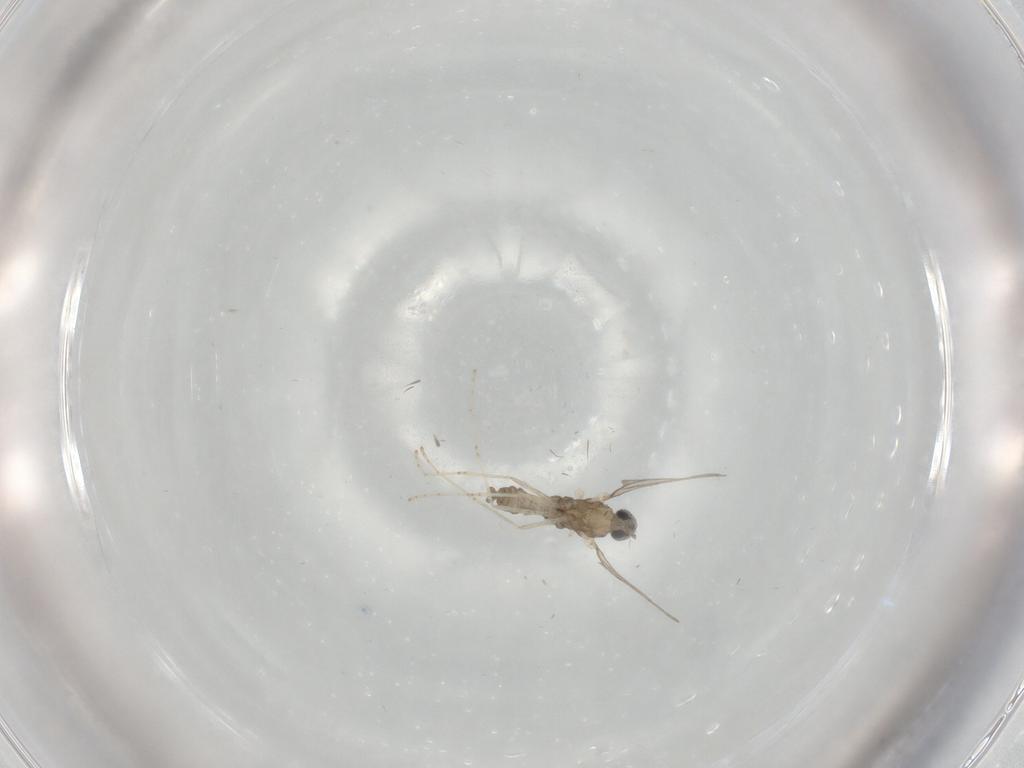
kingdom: Animalia
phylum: Arthropoda
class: Insecta
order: Diptera
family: Cecidomyiidae
